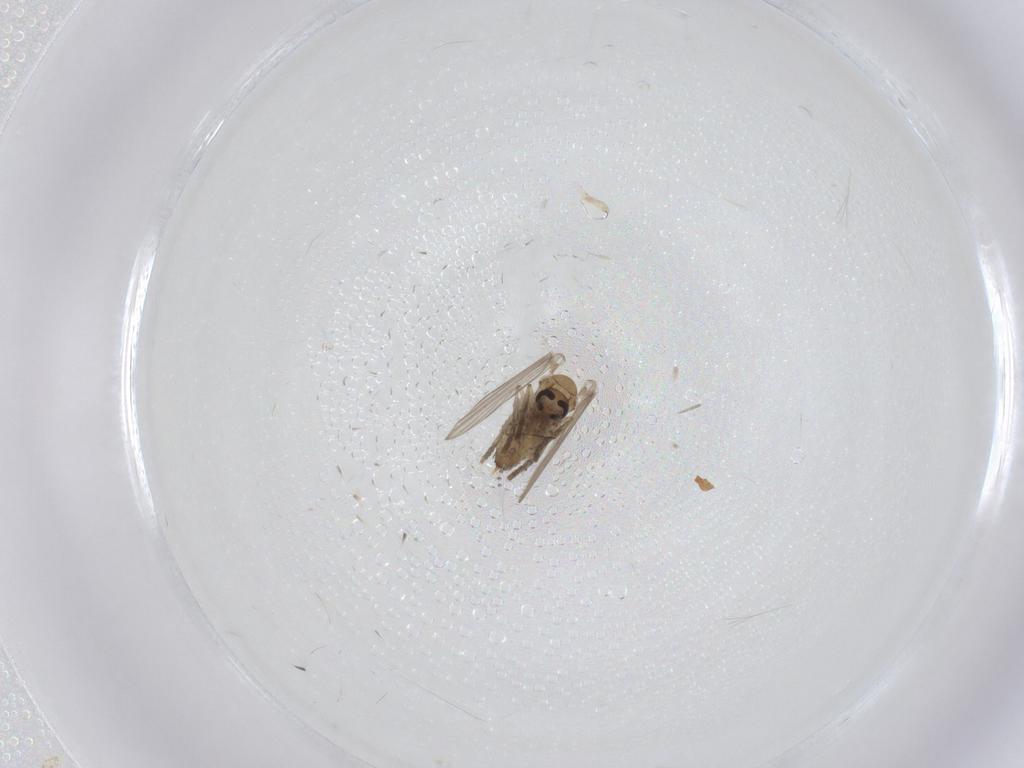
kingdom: Animalia
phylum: Arthropoda
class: Insecta
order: Diptera
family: Psychodidae
